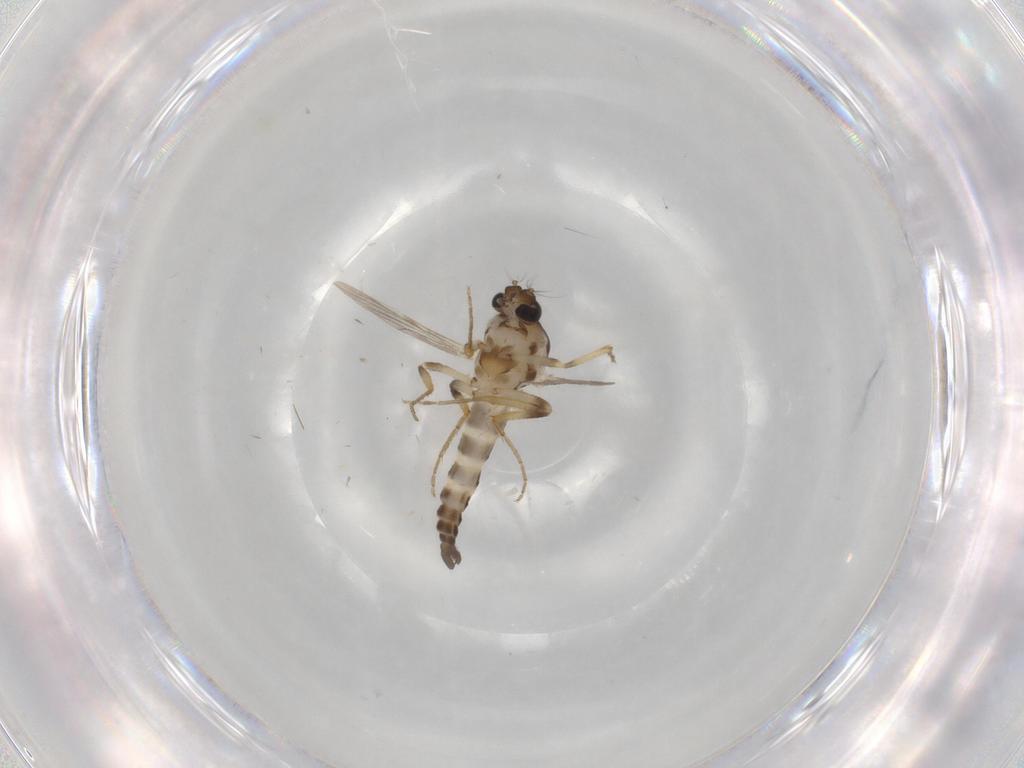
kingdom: Animalia
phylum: Arthropoda
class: Insecta
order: Diptera
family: Ceratopogonidae
